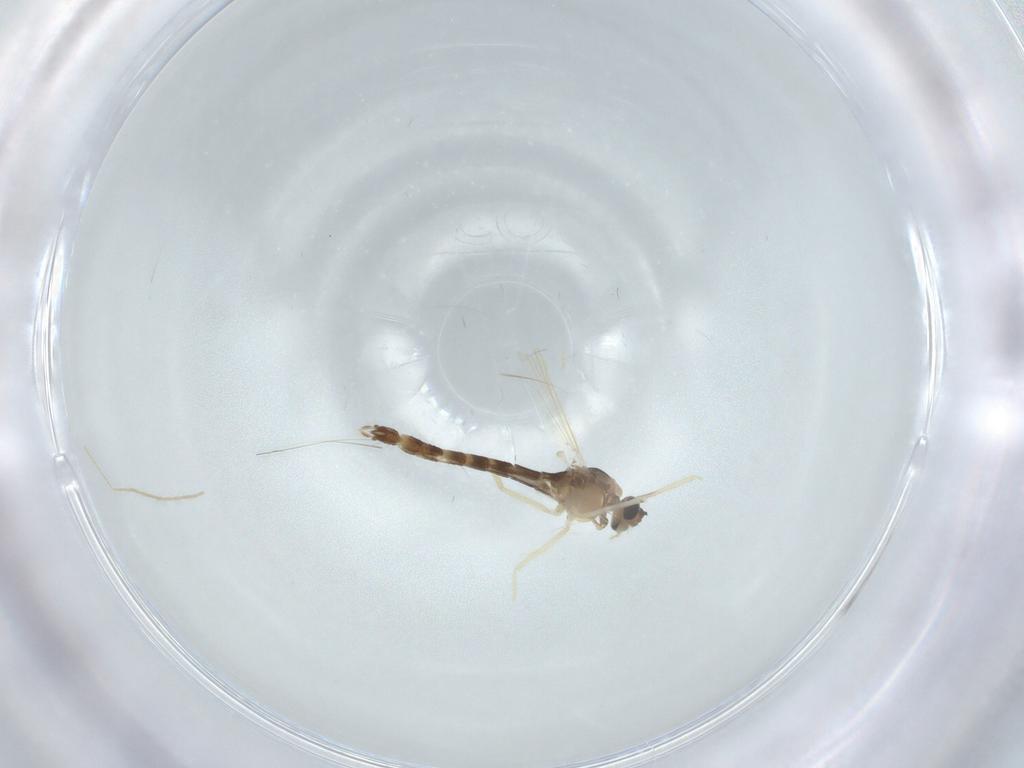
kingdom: Animalia
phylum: Arthropoda
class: Insecta
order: Diptera
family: Chironomidae
